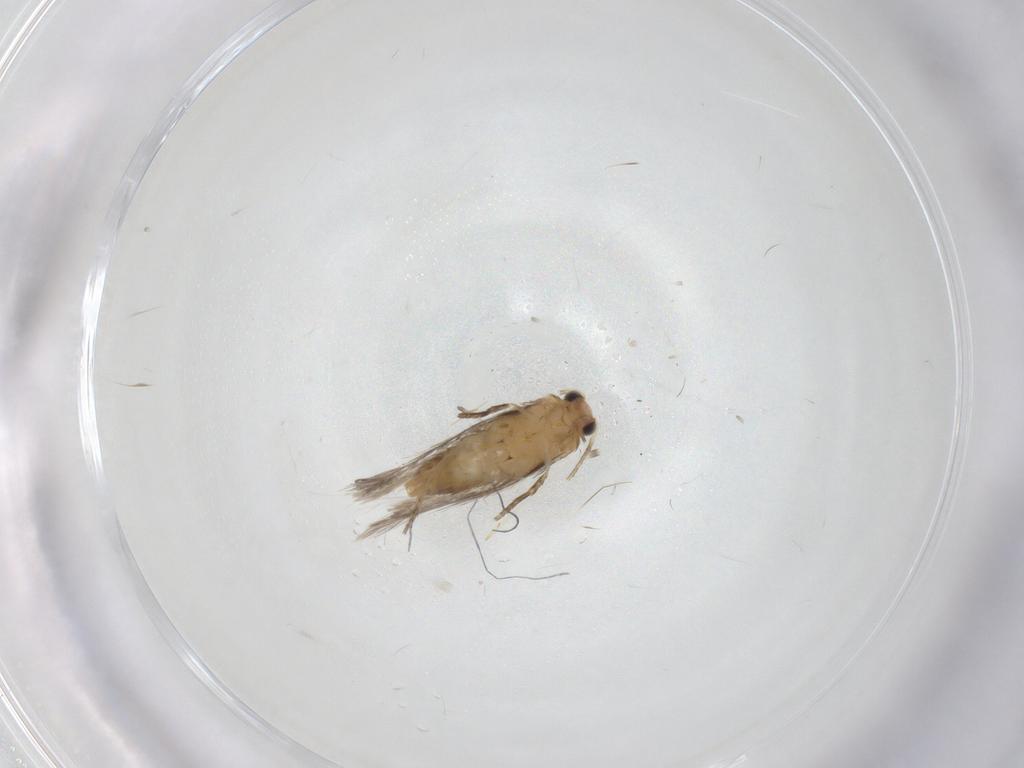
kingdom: Animalia
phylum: Arthropoda
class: Insecta
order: Lepidoptera
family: Nepticulidae
